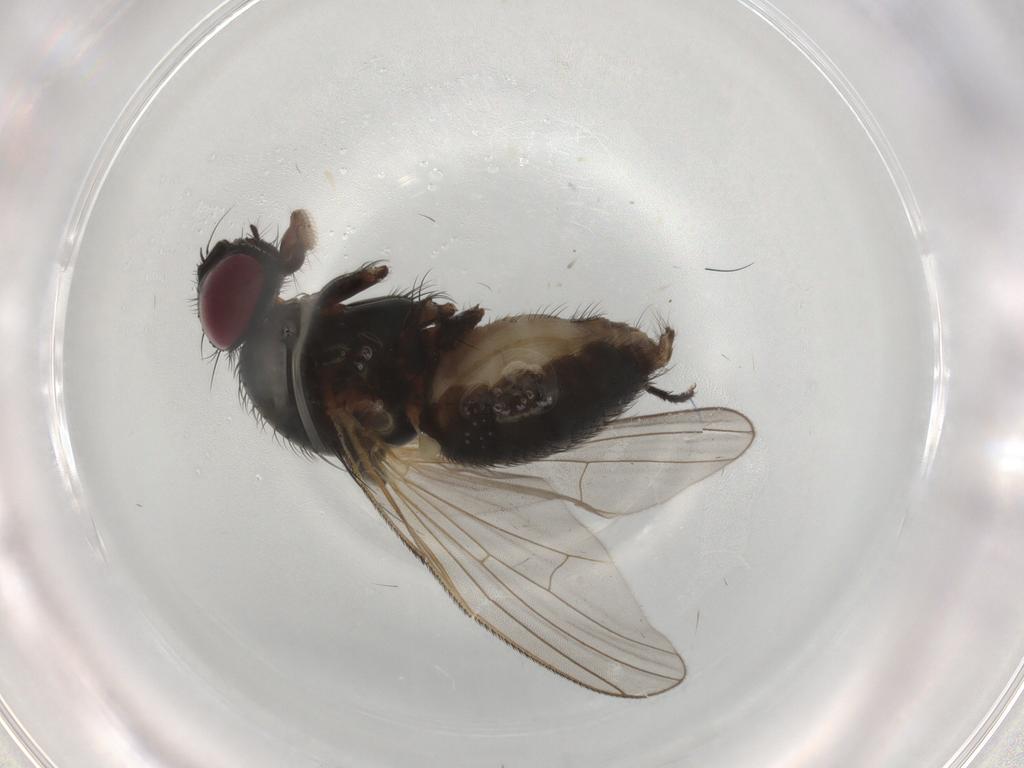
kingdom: Animalia
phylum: Arthropoda
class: Insecta
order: Diptera
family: Fannia
